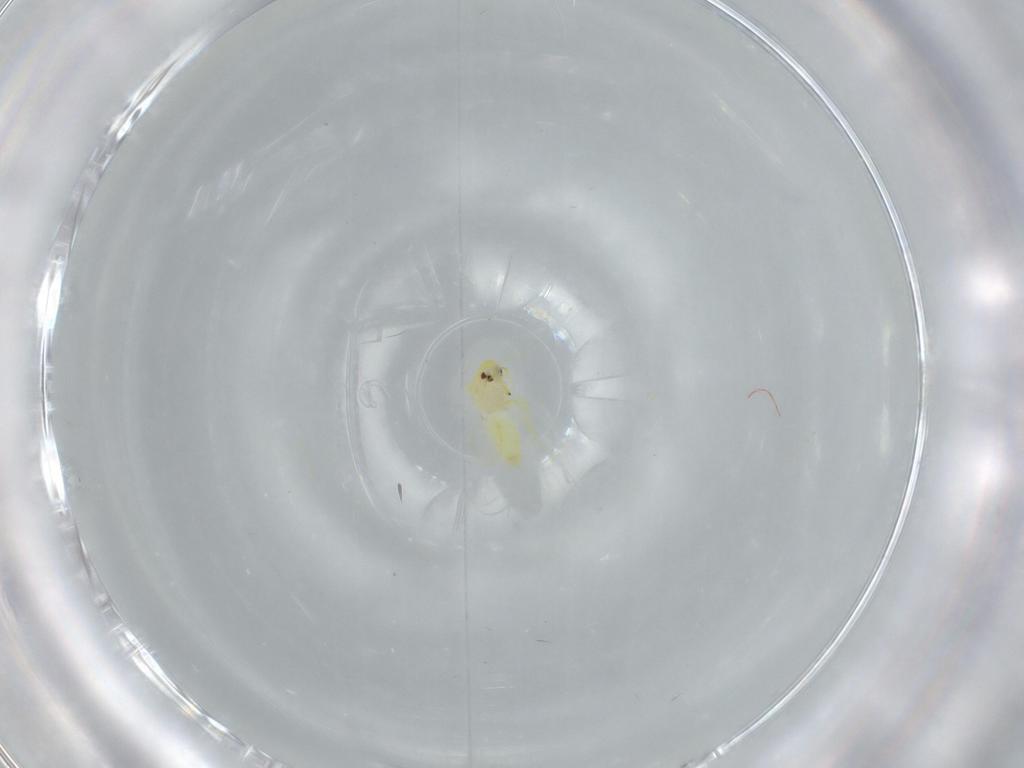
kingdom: Animalia
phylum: Arthropoda
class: Insecta
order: Hemiptera
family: Aleyrodidae
